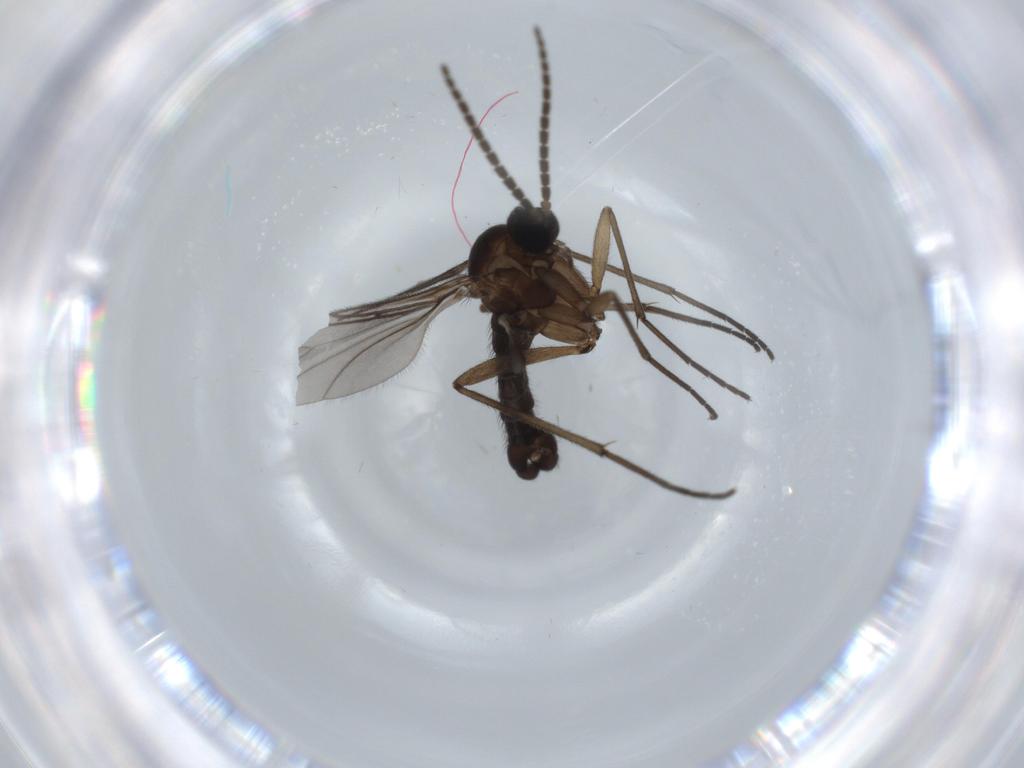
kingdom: Animalia
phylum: Arthropoda
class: Insecta
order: Diptera
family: Sciaridae
